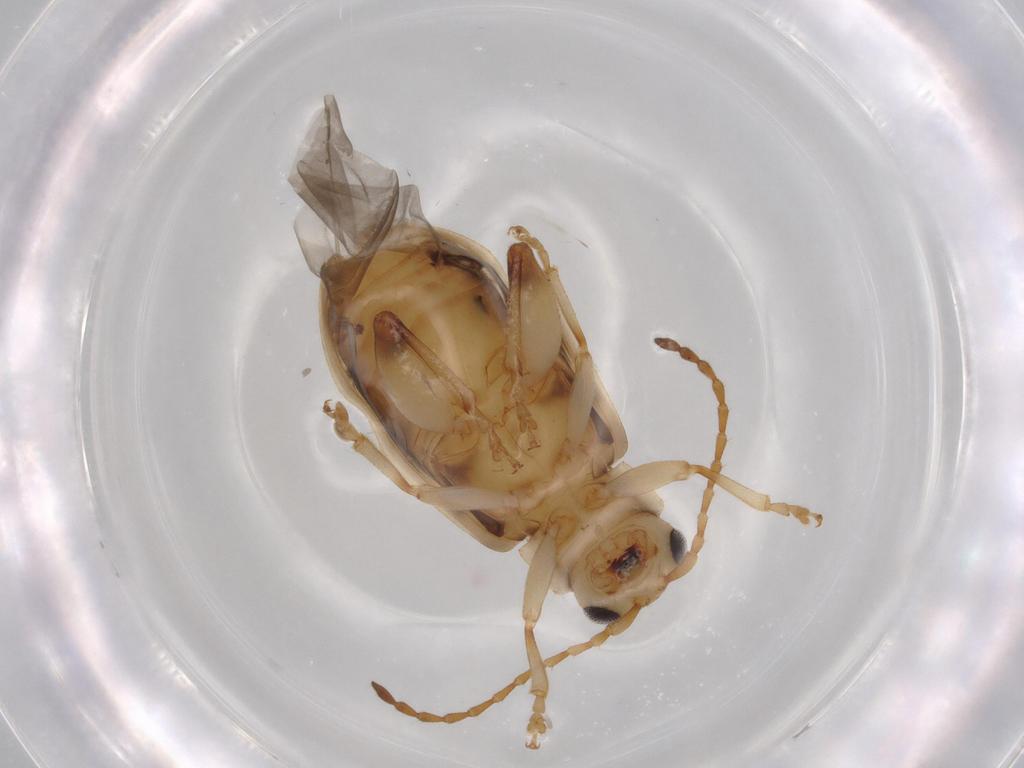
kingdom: Animalia
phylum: Arthropoda
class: Insecta
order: Coleoptera
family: Chrysomelidae
